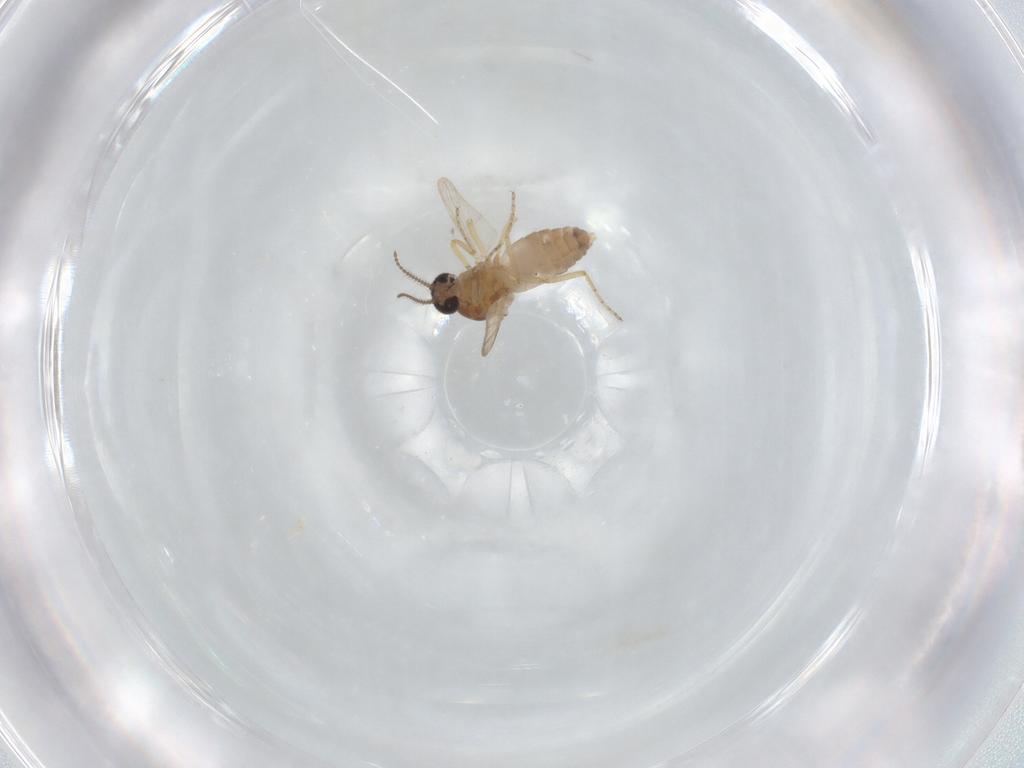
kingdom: Animalia
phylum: Arthropoda
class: Insecta
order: Diptera
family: Ceratopogonidae
